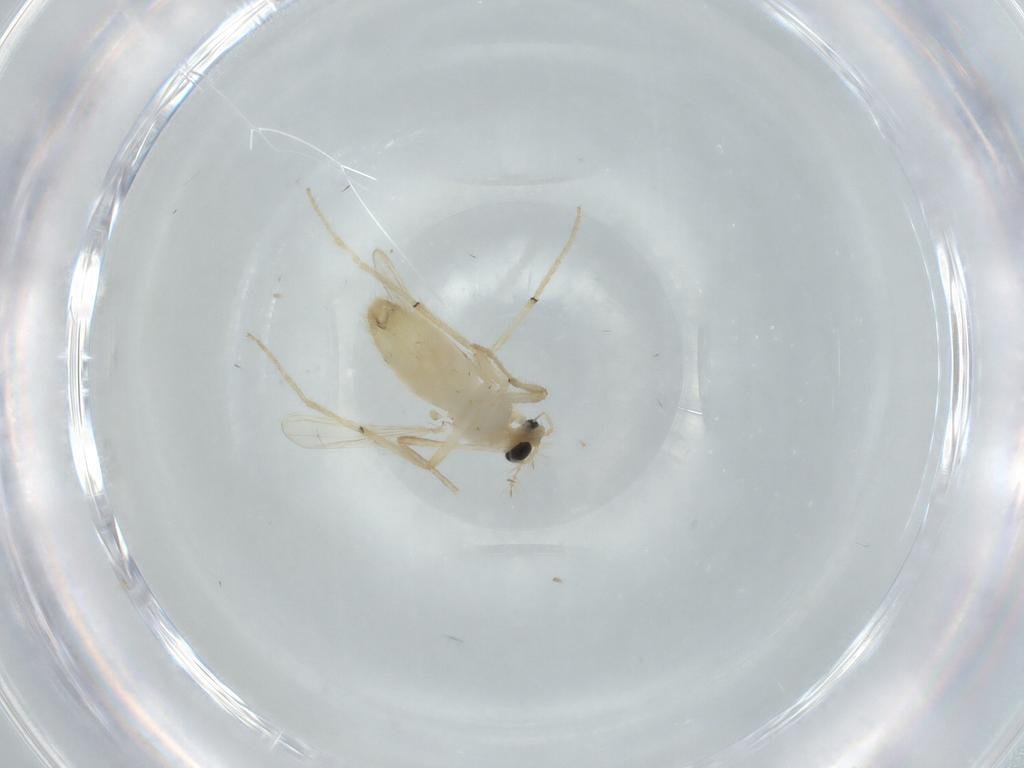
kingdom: Animalia
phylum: Arthropoda
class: Insecta
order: Diptera
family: Chironomidae
